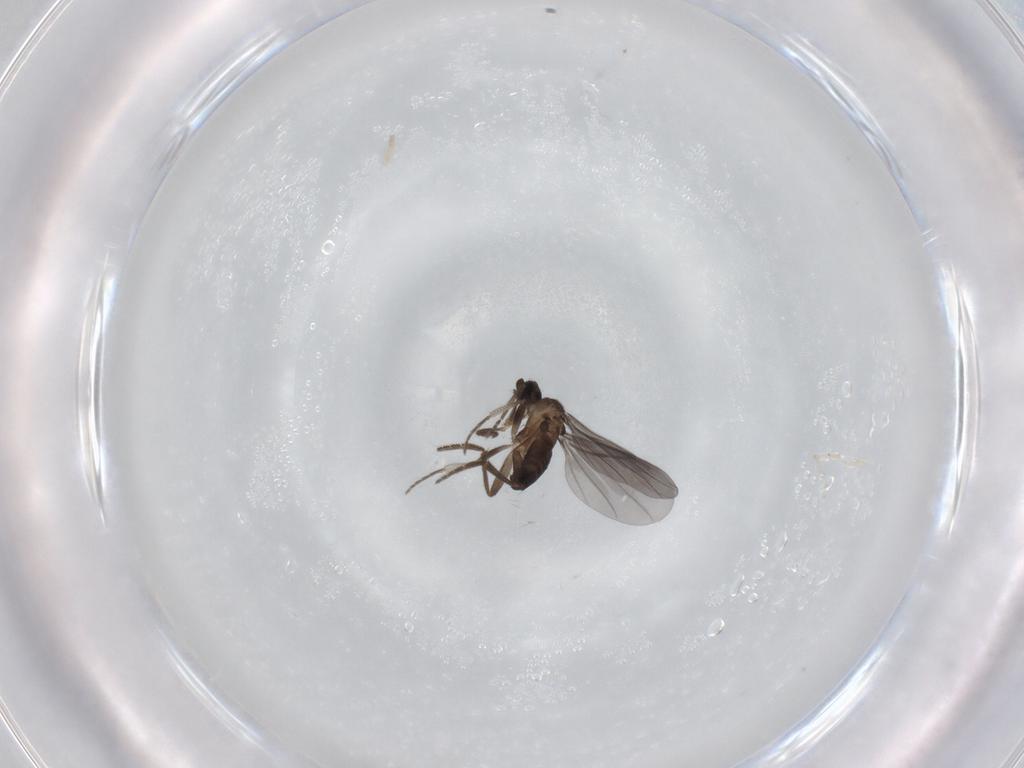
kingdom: Animalia
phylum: Arthropoda
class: Insecta
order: Diptera
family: Phoridae
